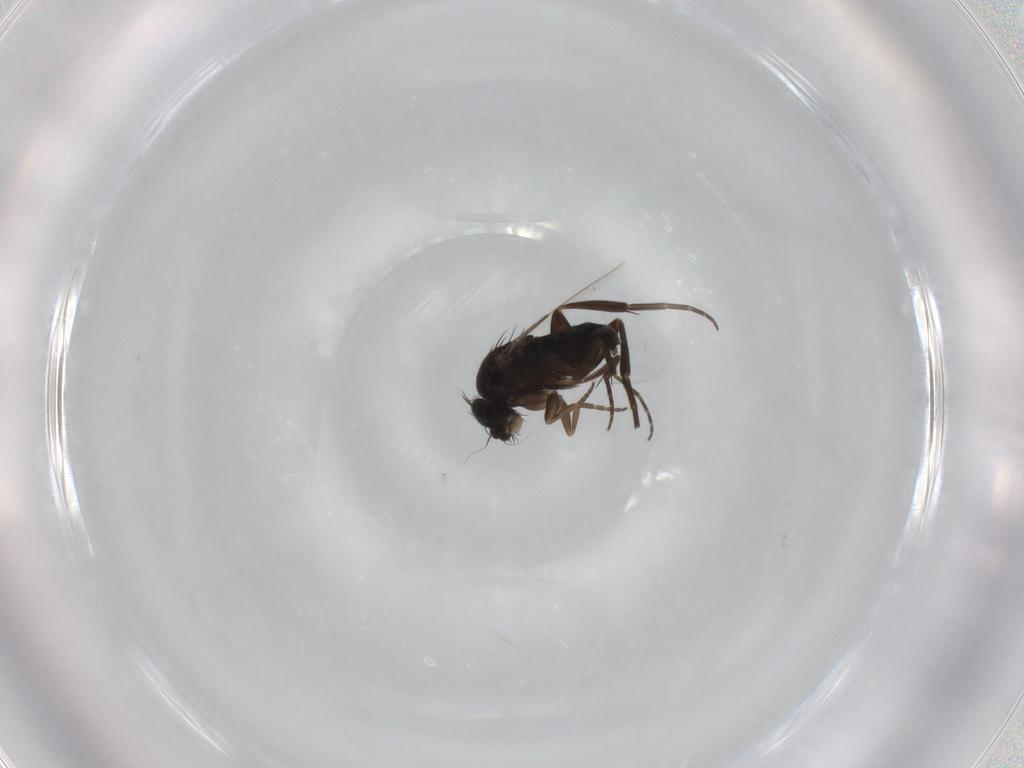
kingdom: Animalia
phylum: Arthropoda
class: Insecta
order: Diptera
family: Phoridae
